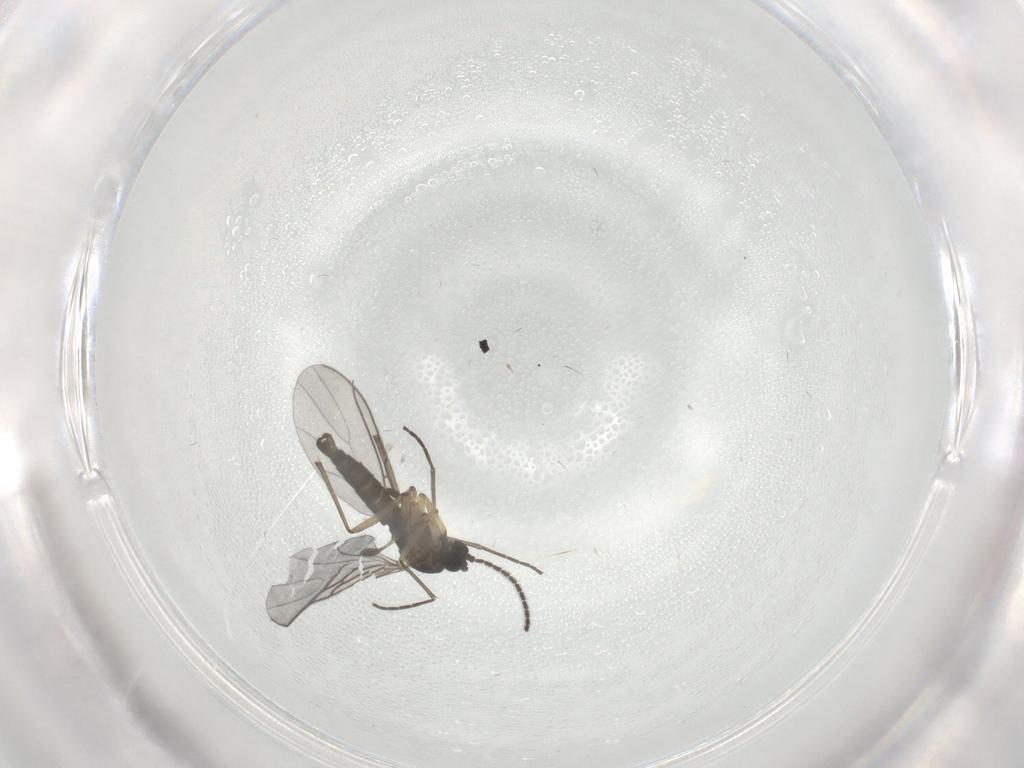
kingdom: Animalia
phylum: Arthropoda
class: Insecta
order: Diptera
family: Sciaridae
